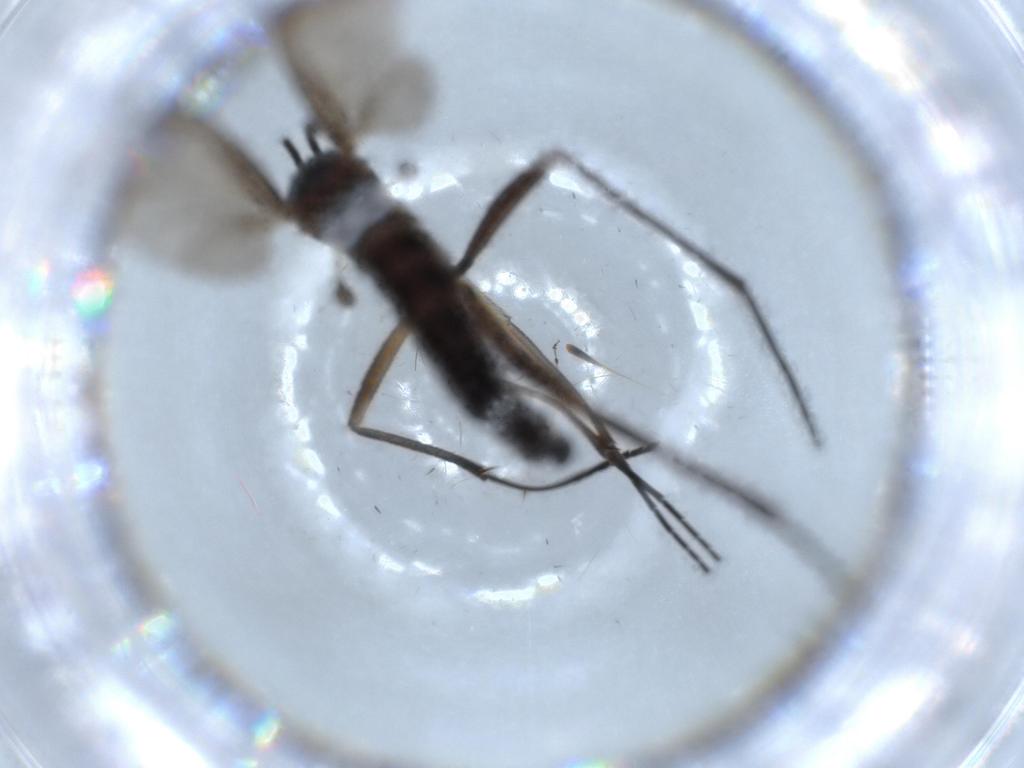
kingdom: Animalia
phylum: Arthropoda
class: Insecta
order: Diptera
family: Sciaridae
